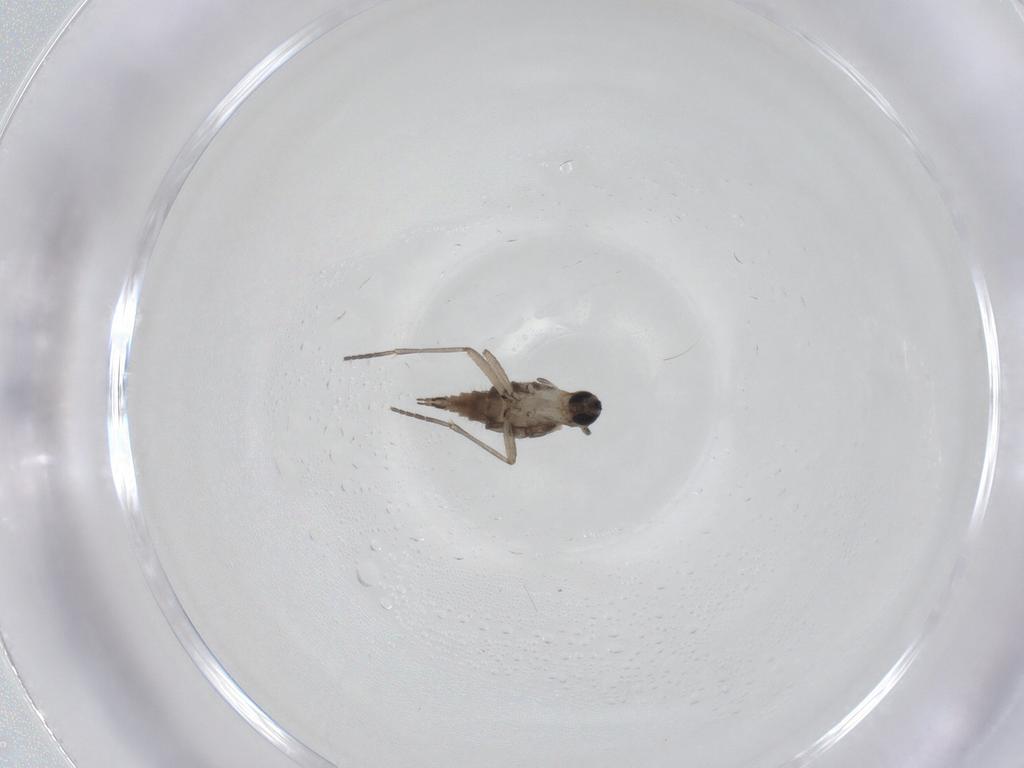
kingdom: Animalia
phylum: Arthropoda
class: Insecta
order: Diptera
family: Sciaridae
